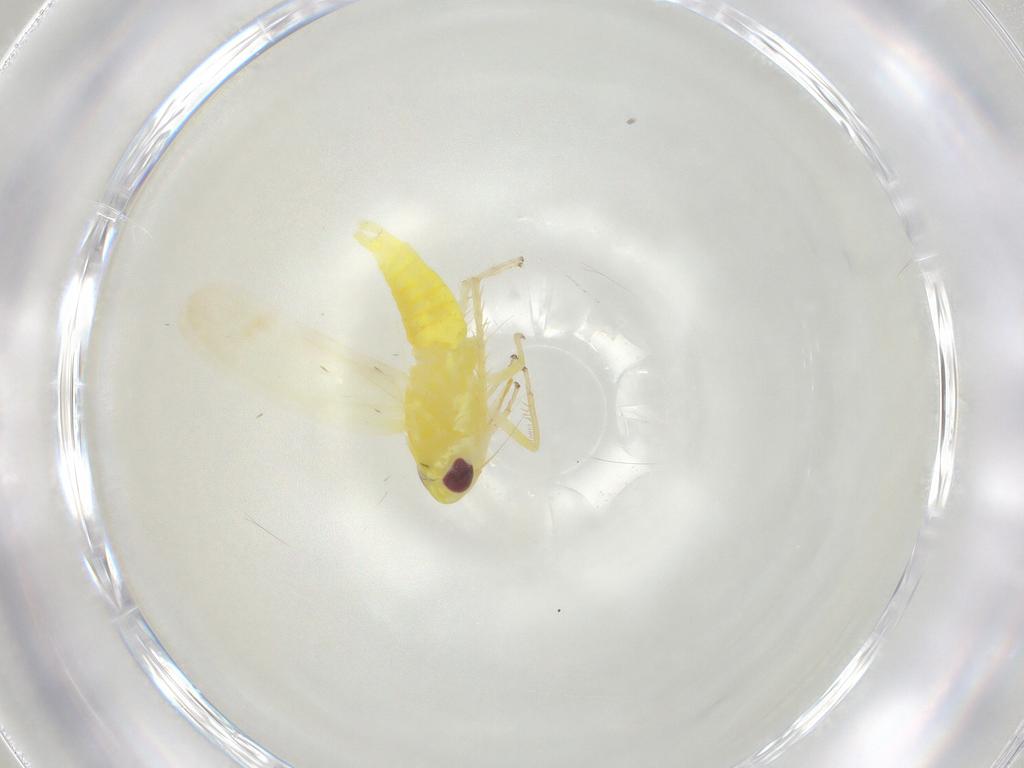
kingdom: Animalia
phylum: Arthropoda
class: Insecta
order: Hemiptera
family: Cicadellidae
